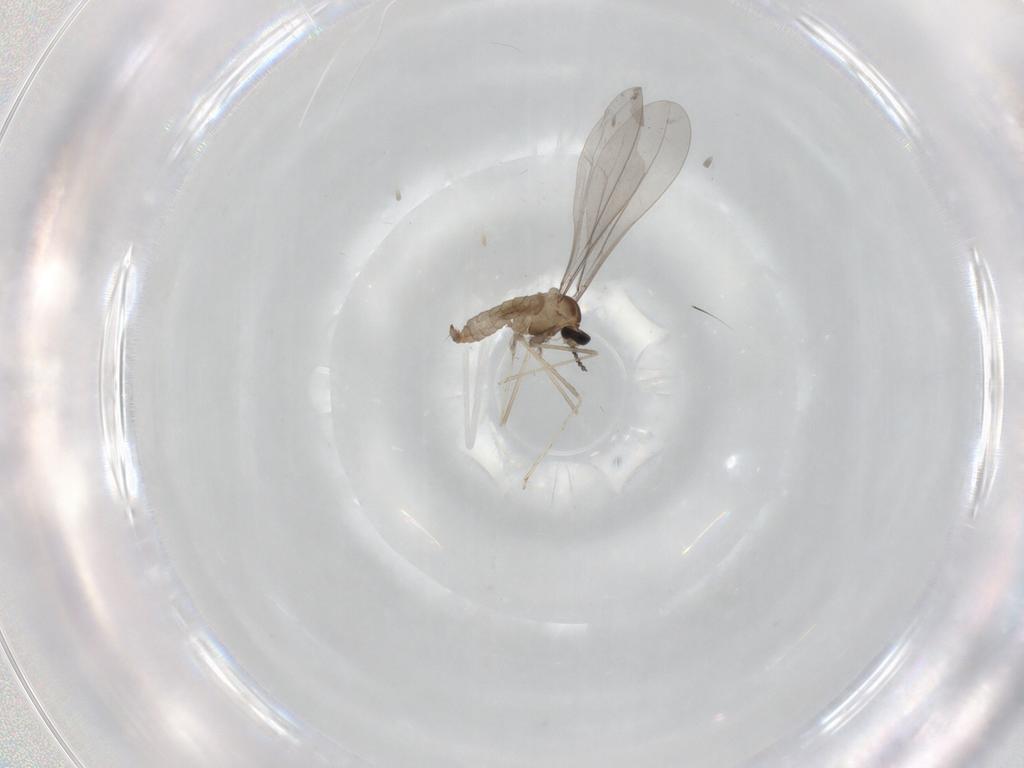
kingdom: Animalia
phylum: Arthropoda
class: Insecta
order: Diptera
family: Cecidomyiidae
